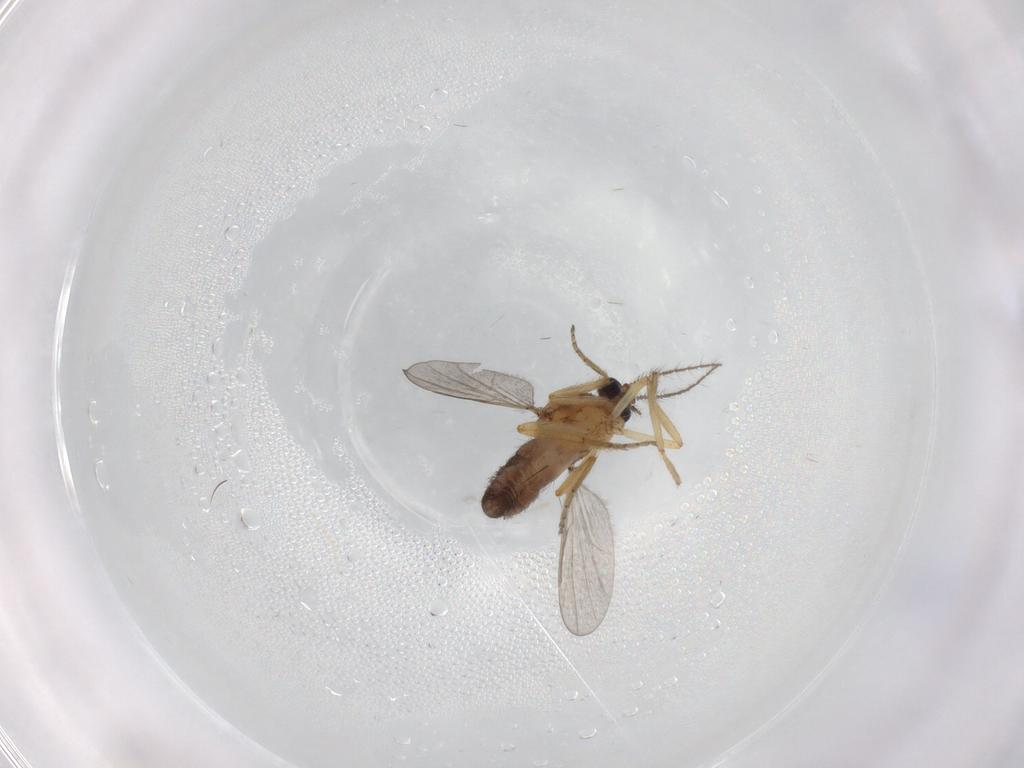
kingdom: Animalia
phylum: Arthropoda
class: Insecta
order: Diptera
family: Ceratopogonidae
